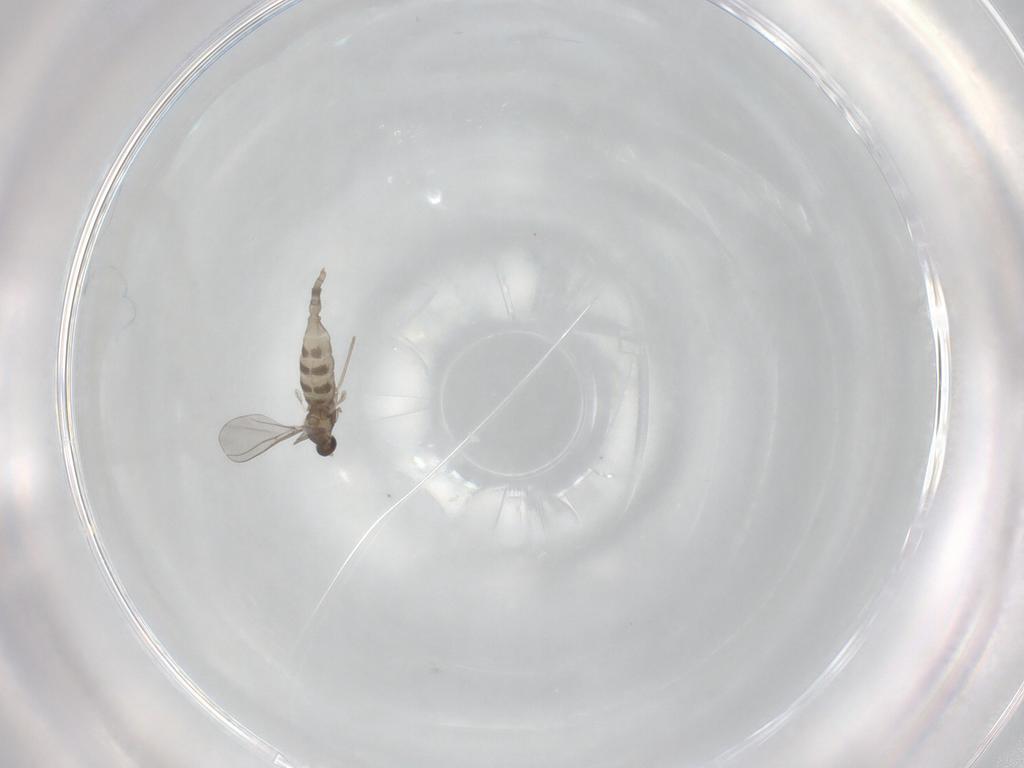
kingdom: Animalia
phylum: Arthropoda
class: Insecta
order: Diptera
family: Cecidomyiidae
